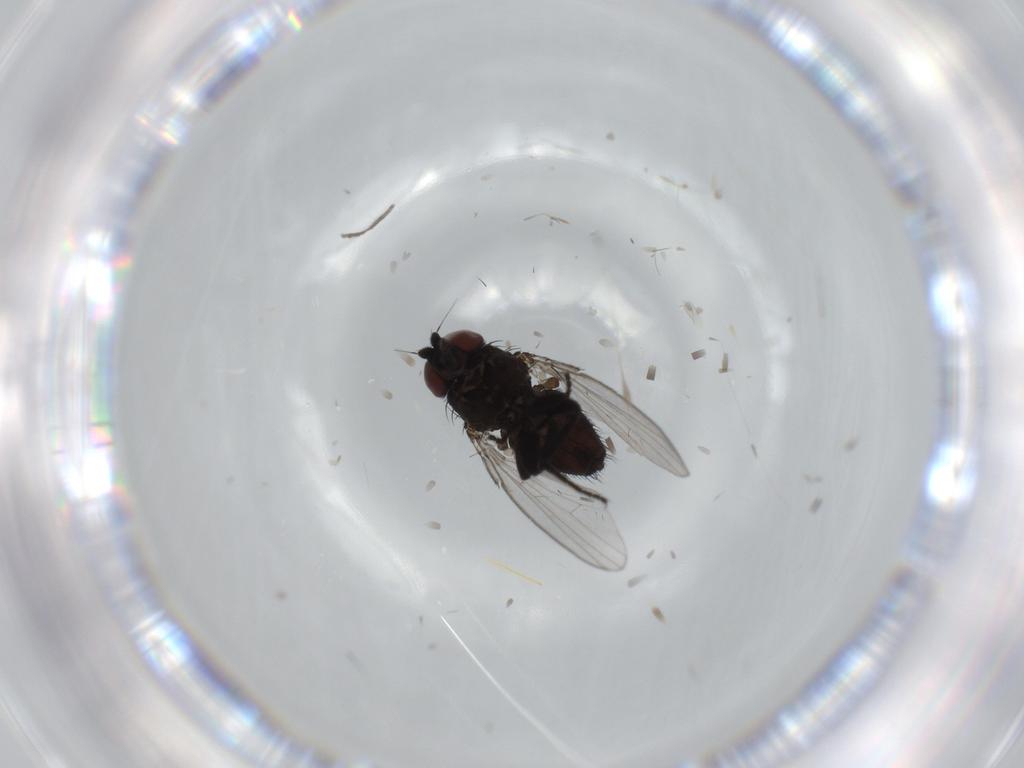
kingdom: Animalia
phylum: Arthropoda
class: Insecta
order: Diptera
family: Milichiidae
